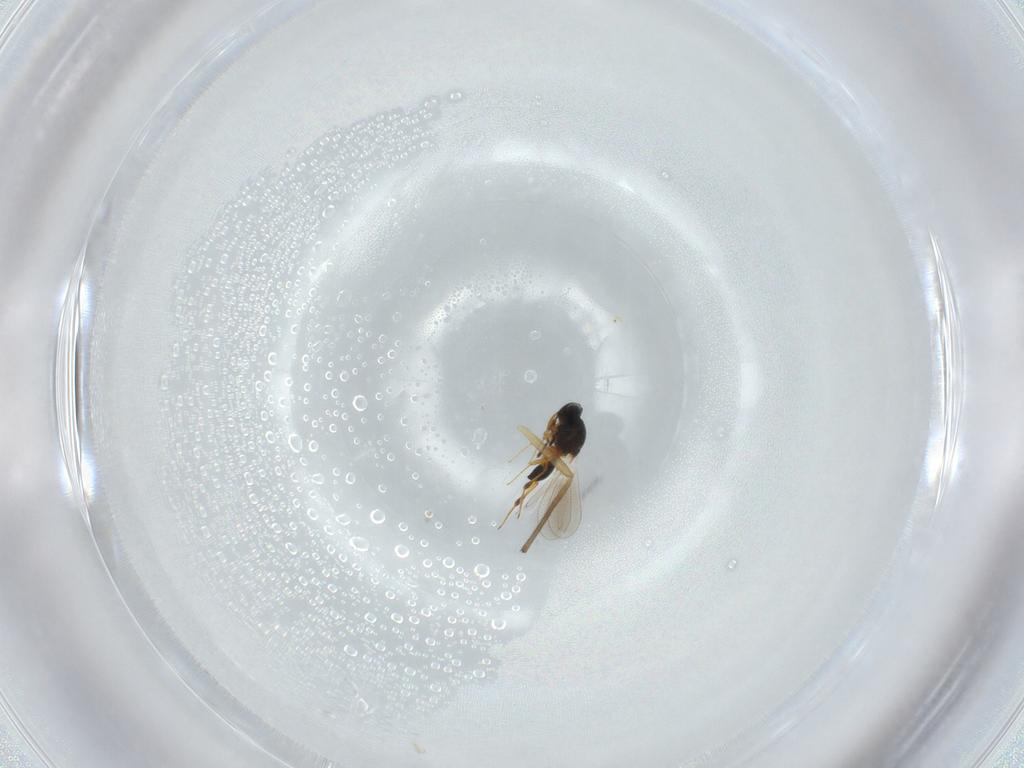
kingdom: Animalia
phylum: Arthropoda
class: Insecta
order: Hymenoptera
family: Platygastridae
